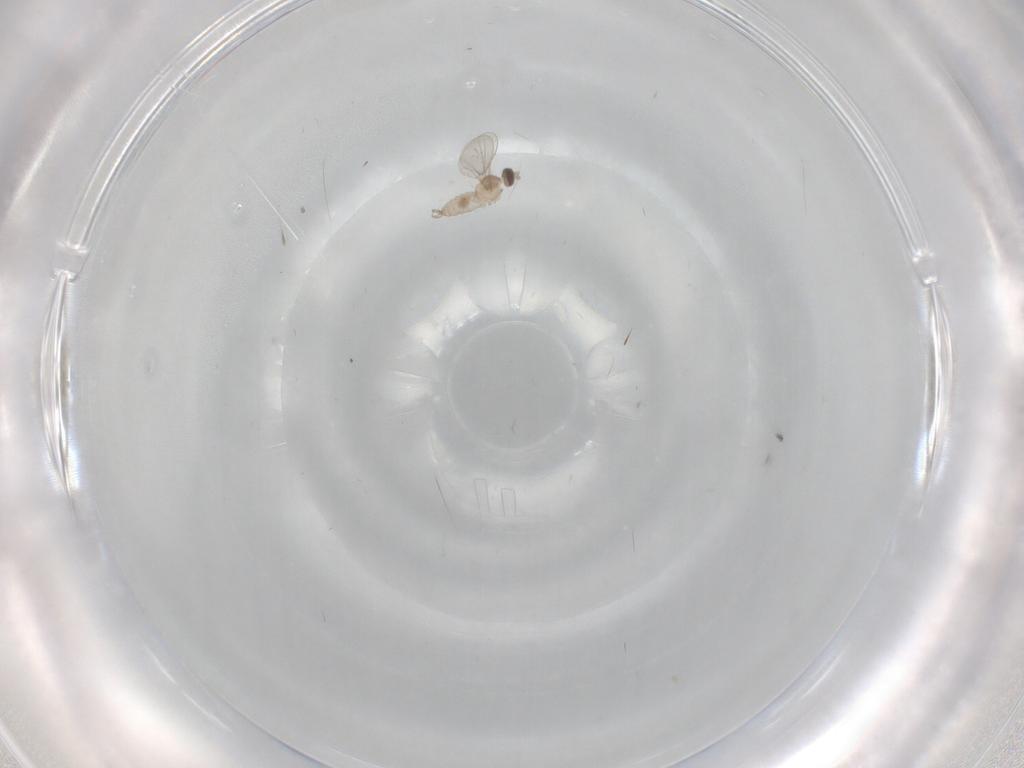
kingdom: Animalia
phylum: Arthropoda
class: Insecta
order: Diptera
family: Cecidomyiidae
